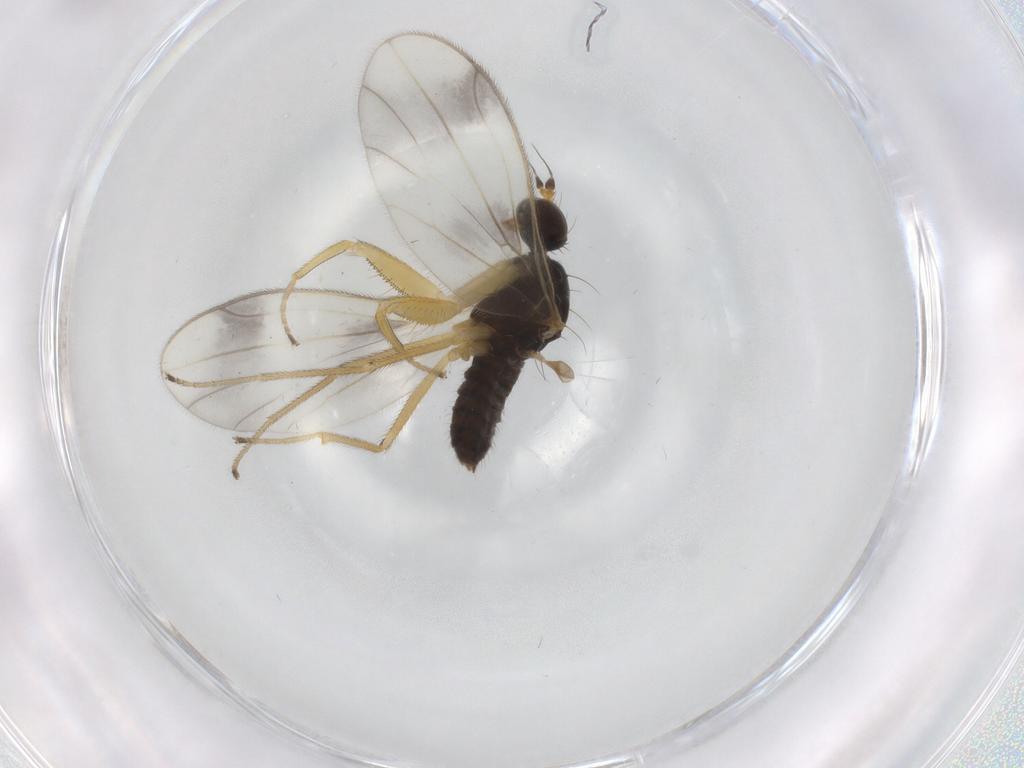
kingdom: Animalia
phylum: Arthropoda
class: Insecta
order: Diptera
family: Empididae
